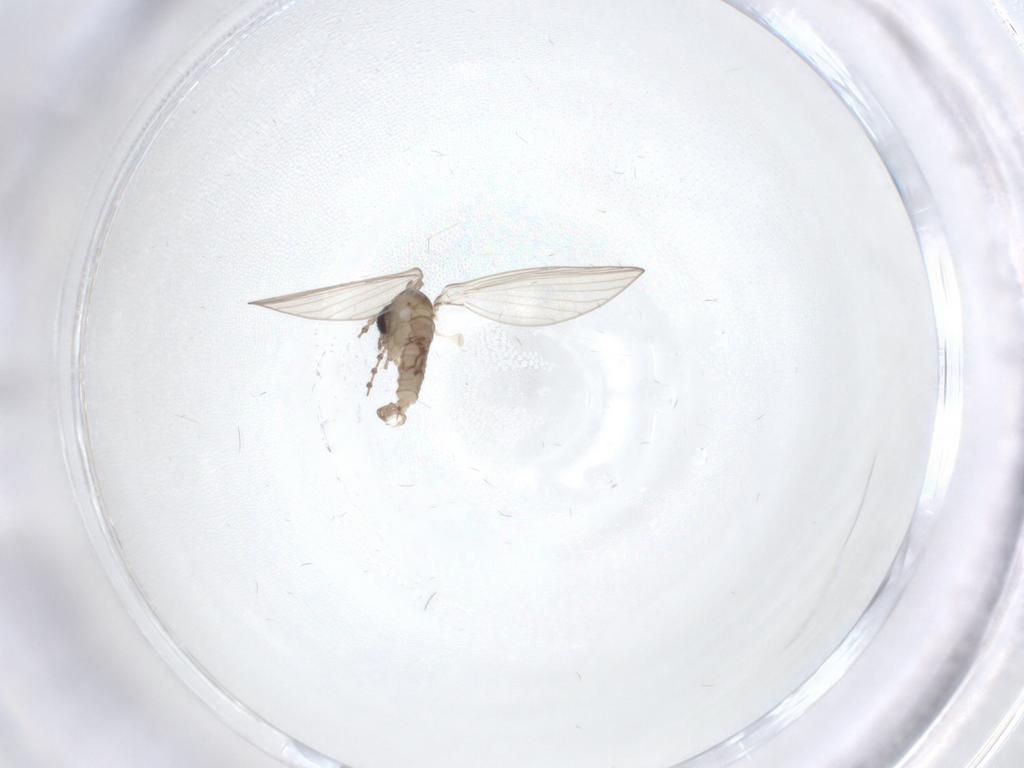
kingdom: Animalia
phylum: Arthropoda
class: Insecta
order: Diptera
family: Psychodidae
